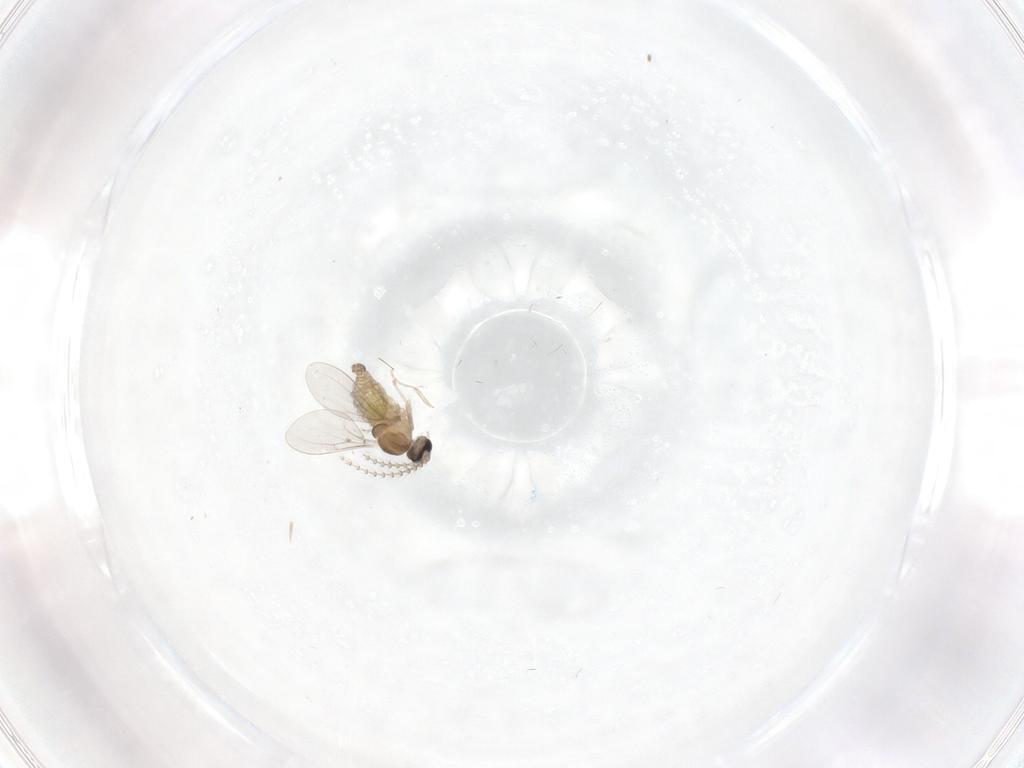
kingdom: Animalia
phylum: Arthropoda
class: Insecta
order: Diptera
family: Cecidomyiidae
